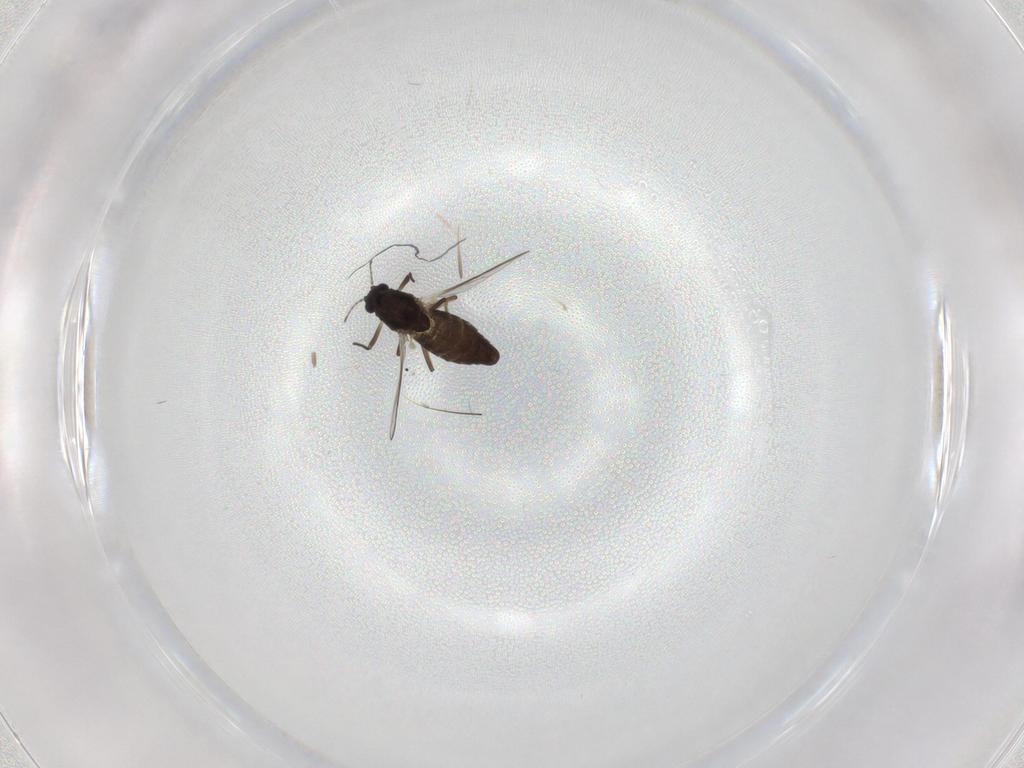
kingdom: Animalia
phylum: Arthropoda
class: Insecta
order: Diptera
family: Chironomidae
